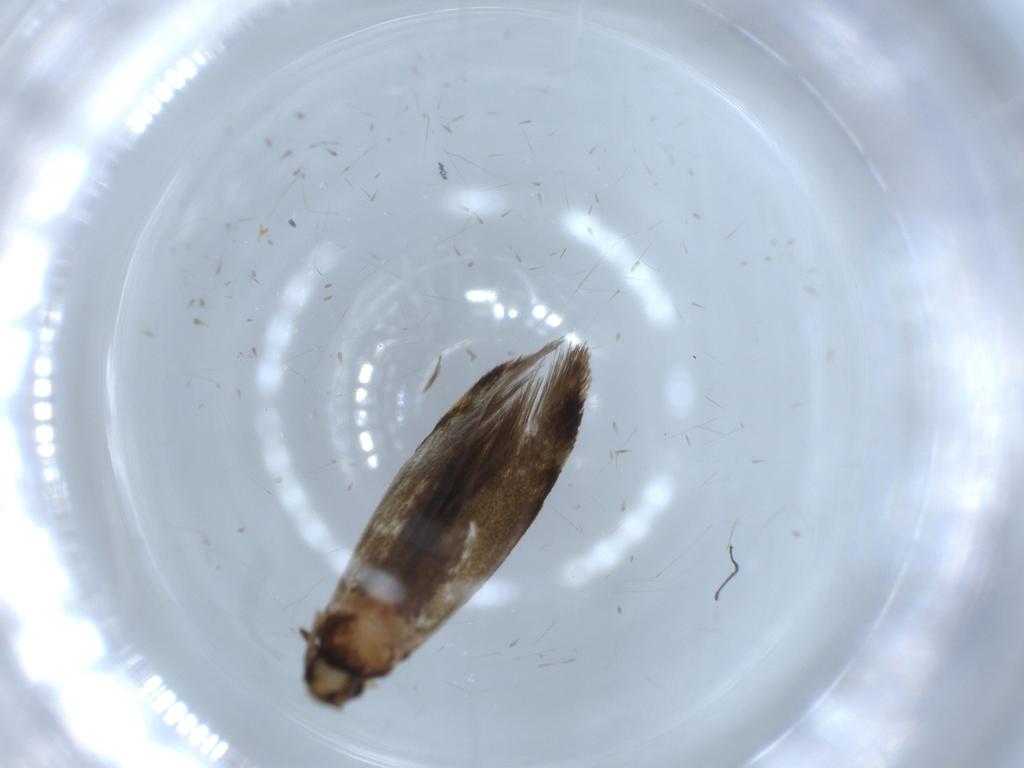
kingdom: Animalia
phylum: Arthropoda
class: Insecta
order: Lepidoptera
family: Tineidae
